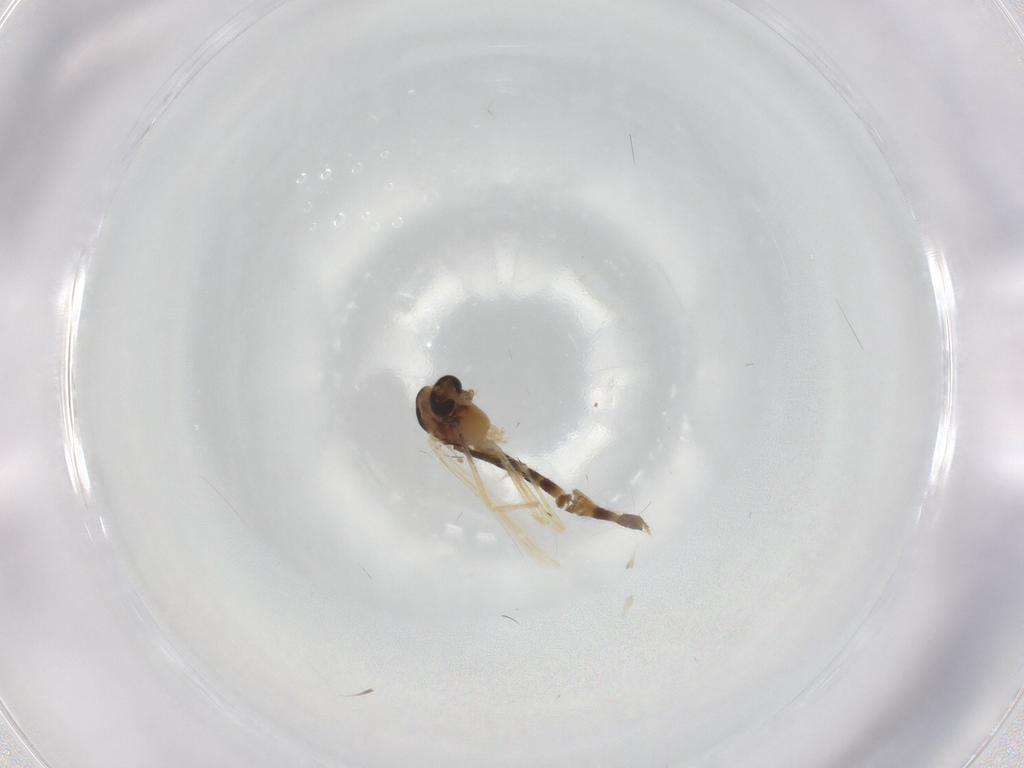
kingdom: Animalia
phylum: Arthropoda
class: Insecta
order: Diptera
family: Chironomidae
